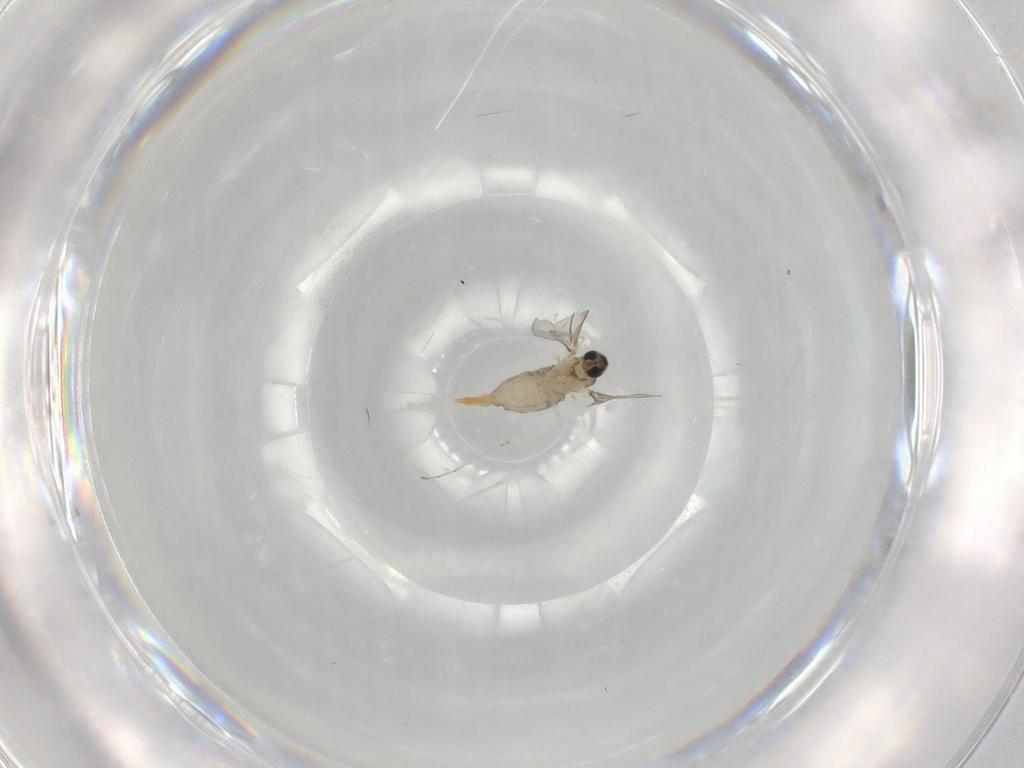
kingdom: Animalia
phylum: Arthropoda
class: Insecta
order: Diptera
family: Cecidomyiidae
